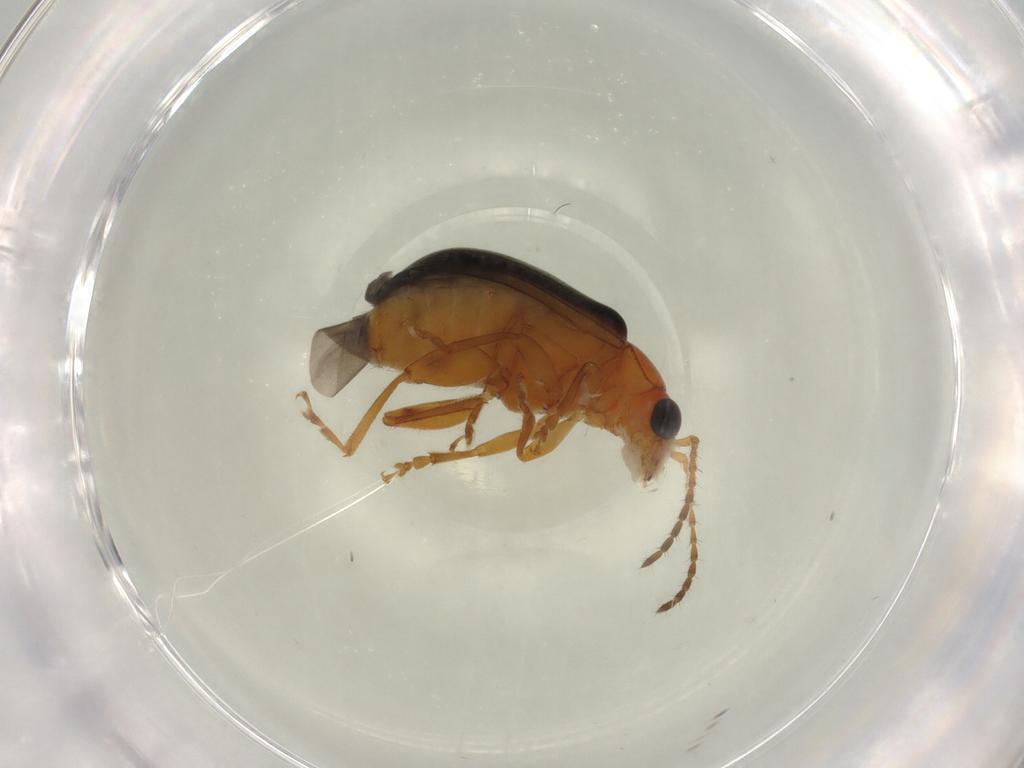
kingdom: Animalia
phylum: Arthropoda
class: Insecta
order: Coleoptera
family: Chrysomelidae
